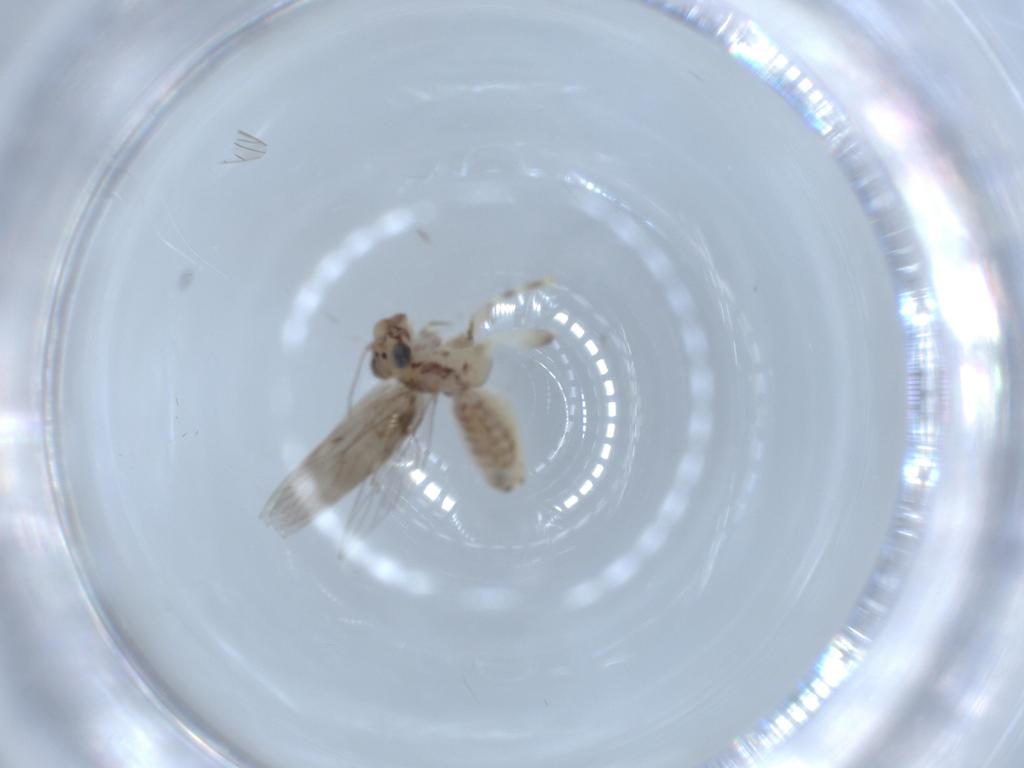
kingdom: Animalia
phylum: Arthropoda
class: Insecta
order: Psocodea
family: Lepidopsocidae
